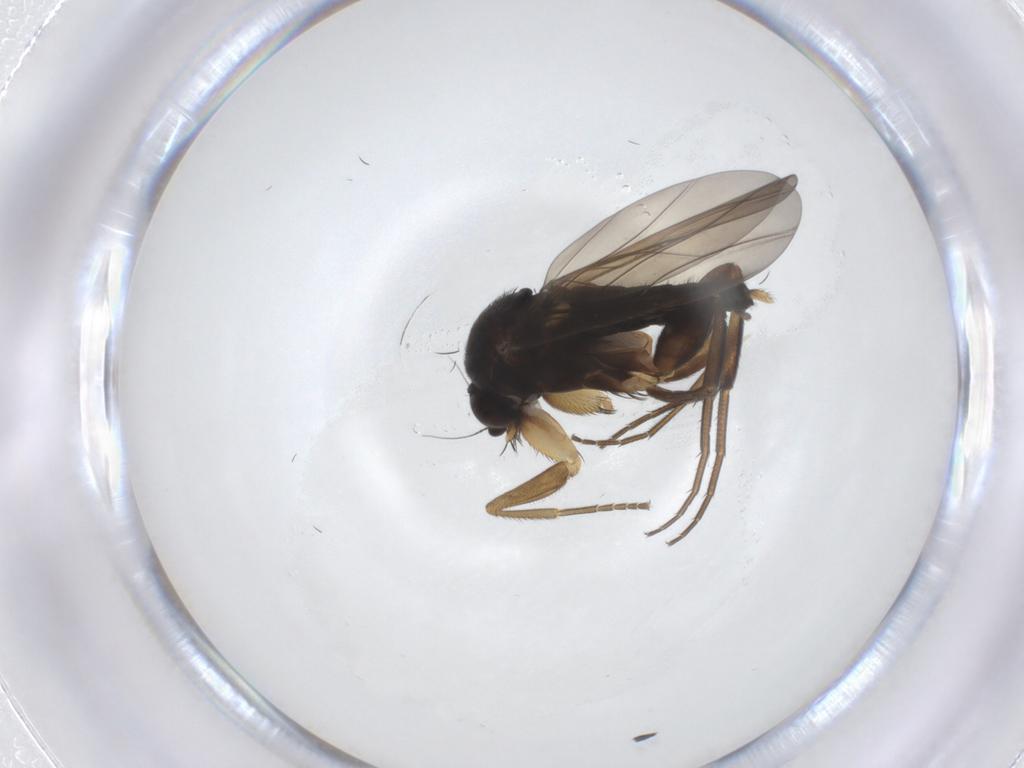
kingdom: Animalia
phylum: Arthropoda
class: Insecta
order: Diptera
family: Phoridae
